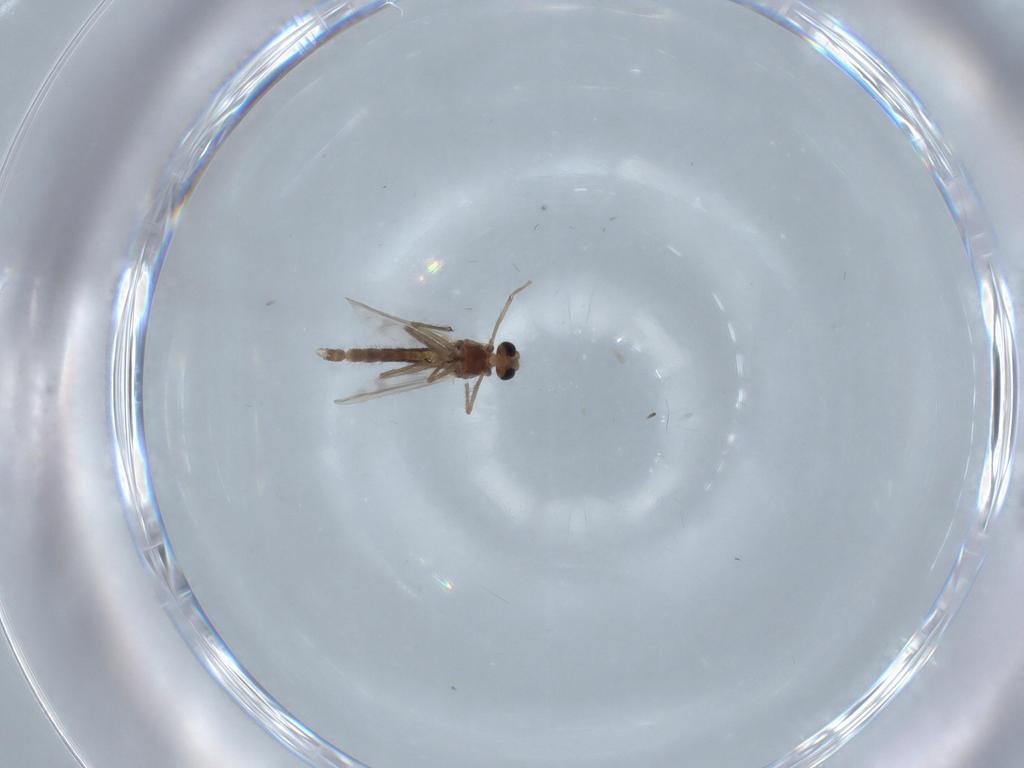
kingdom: Animalia
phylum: Arthropoda
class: Insecta
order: Diptera
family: Chironomidae
